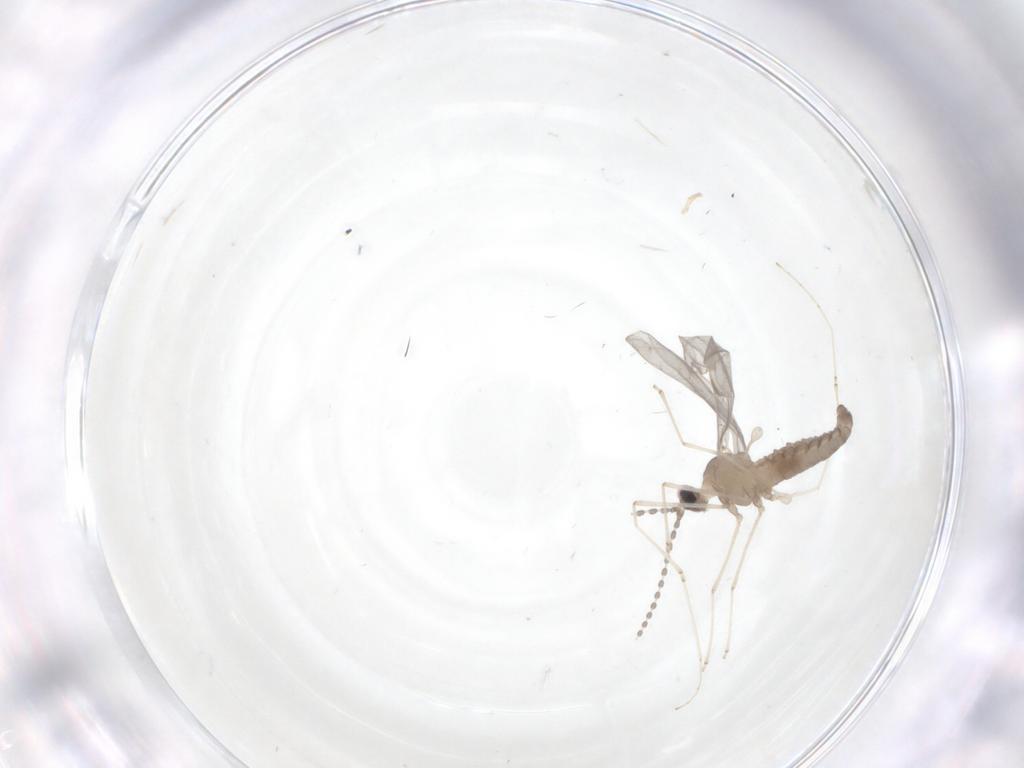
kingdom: Animalia
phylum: Arthropoda
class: Insecta
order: Diptera
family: Cecidomyiidae
